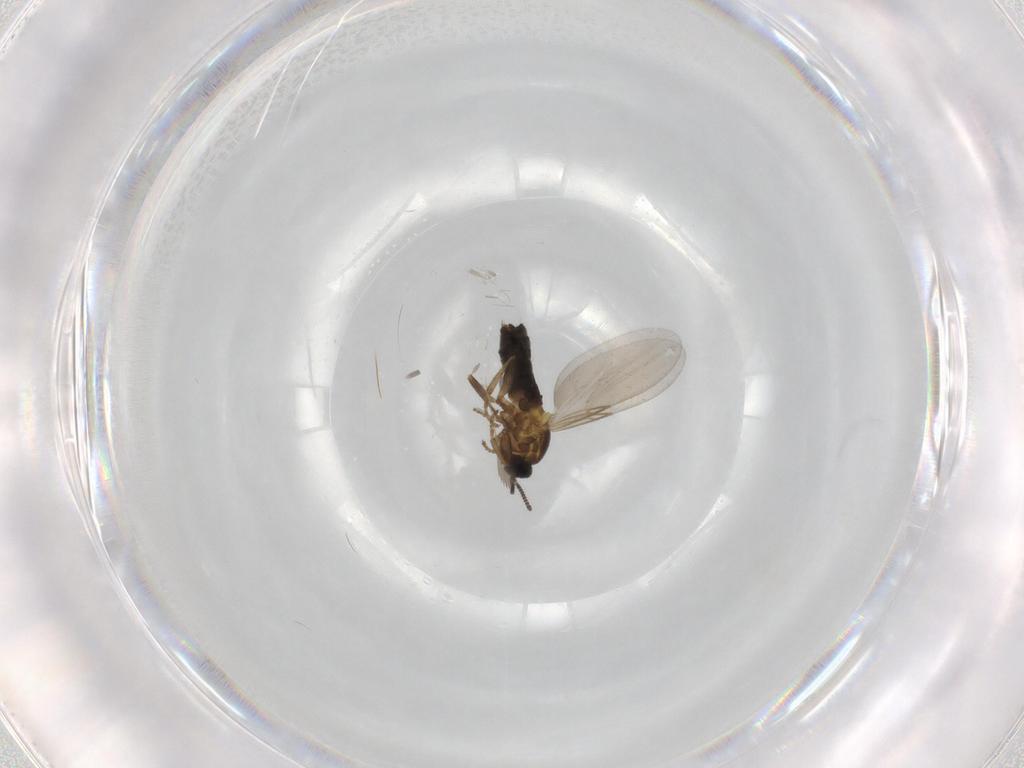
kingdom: Animalia
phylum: Arthropoda
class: Insecta
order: Diptera
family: Scatopsidae
